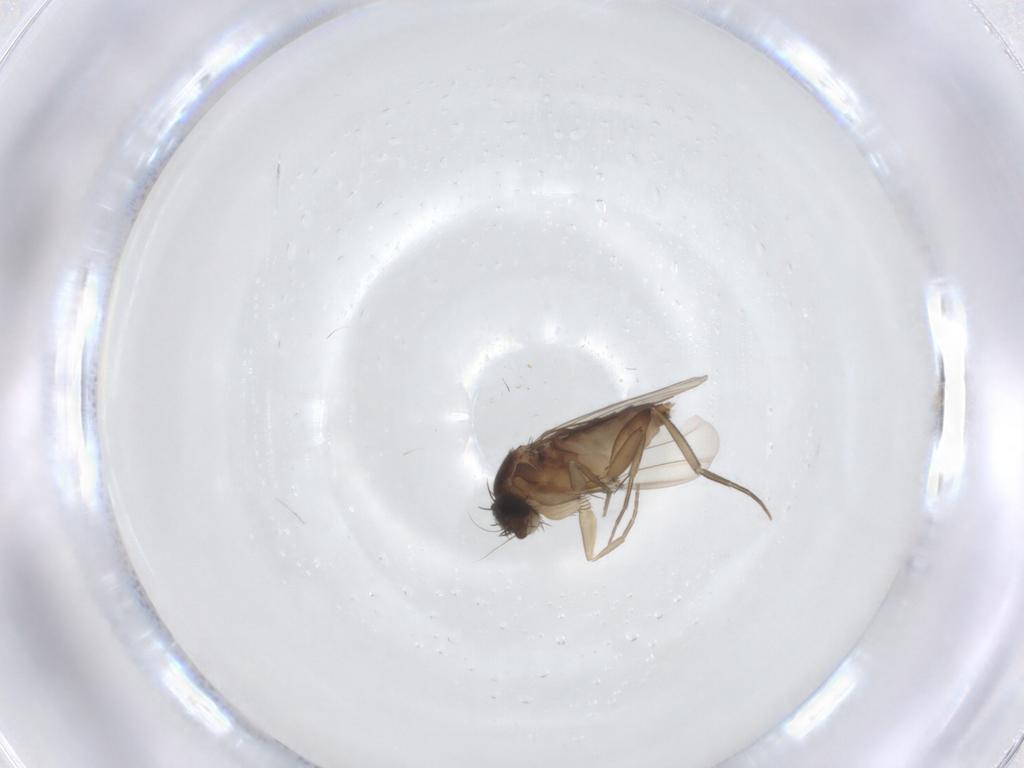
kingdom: Animalia
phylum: Arthropoda
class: Insecta
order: Diptera
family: Phoridae
